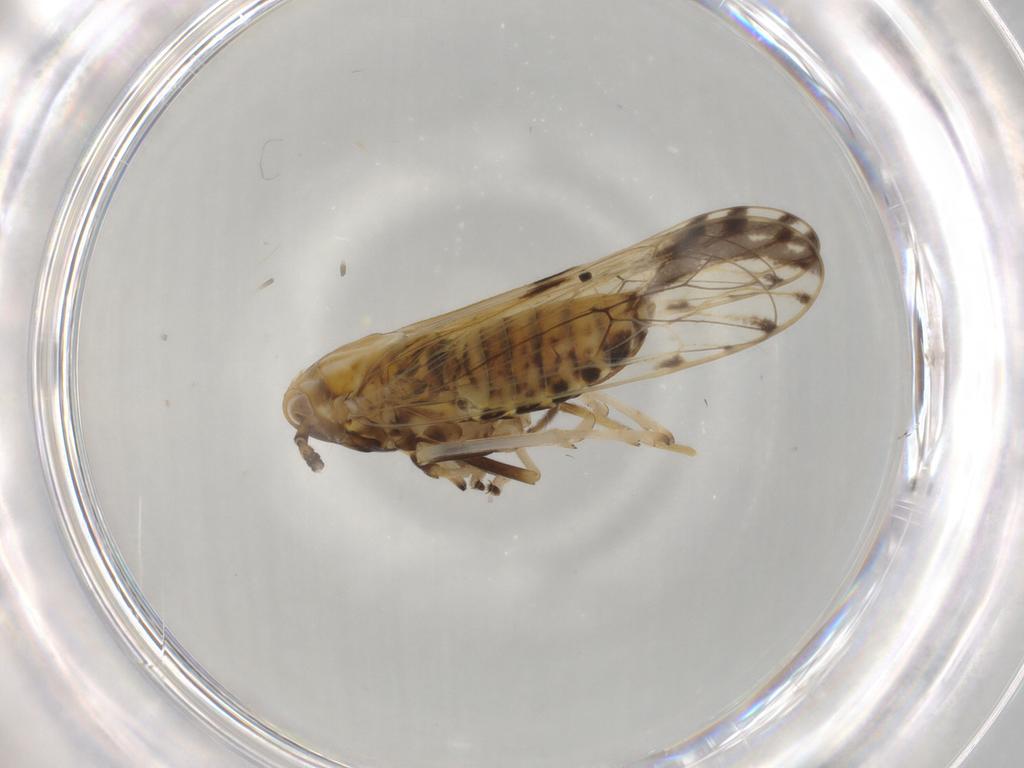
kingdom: Animalia
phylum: Arthropoda
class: Insecta
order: Hemiptera
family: Delphacidae
